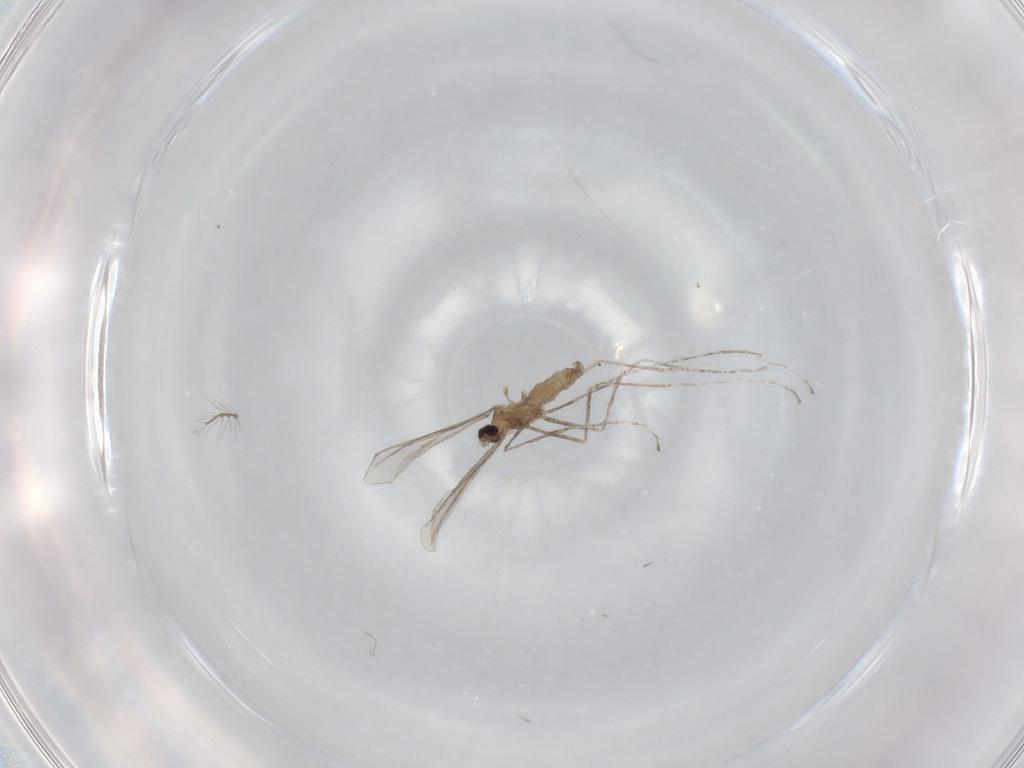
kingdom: Animalia
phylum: Arthropoda
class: Insecta
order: Diptera
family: Cecidomyiidae
